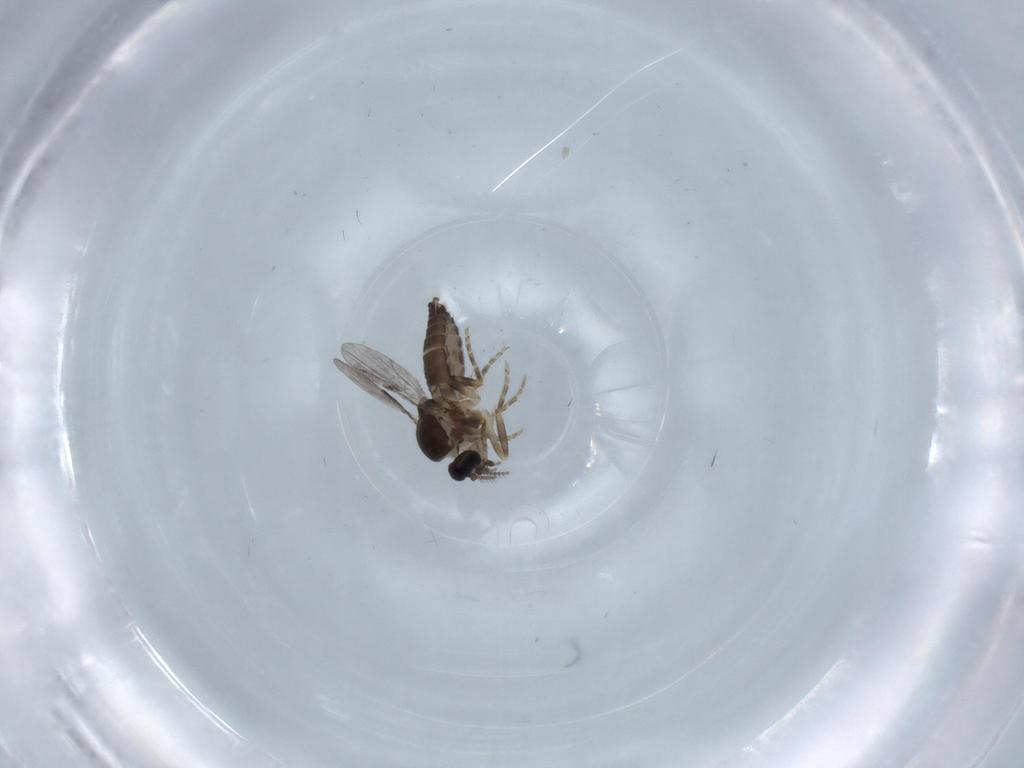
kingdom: Animalia
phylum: Arthropoda
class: Insecta
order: Diptera
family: Ceratopogonidae
